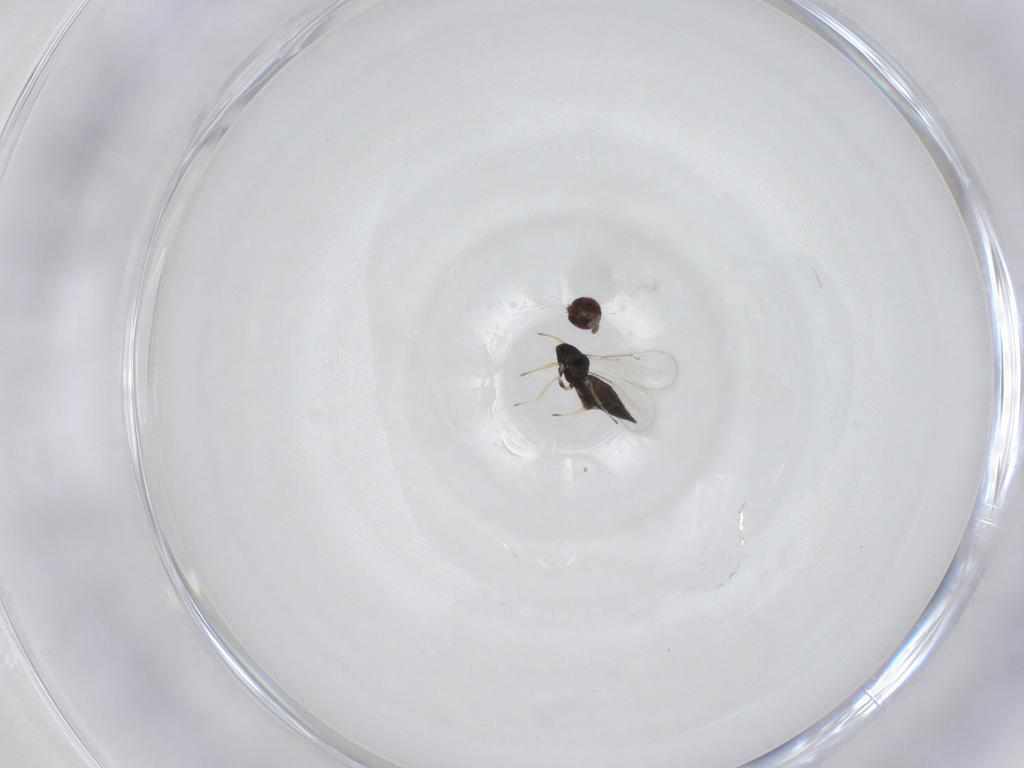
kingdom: Animalia
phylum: Arthropoda
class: Insecta
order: Hymenoptera
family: Eulophidae
